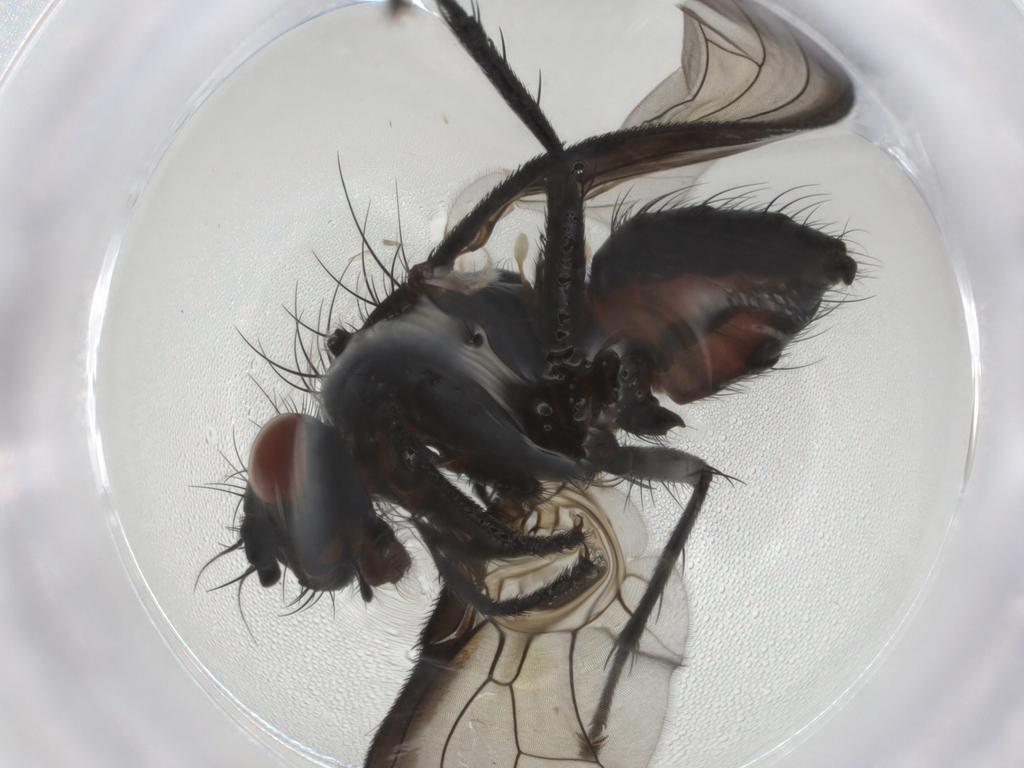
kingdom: Animalia
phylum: Arthropoda
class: Insecta
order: Diptera
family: Anthomyiidae
